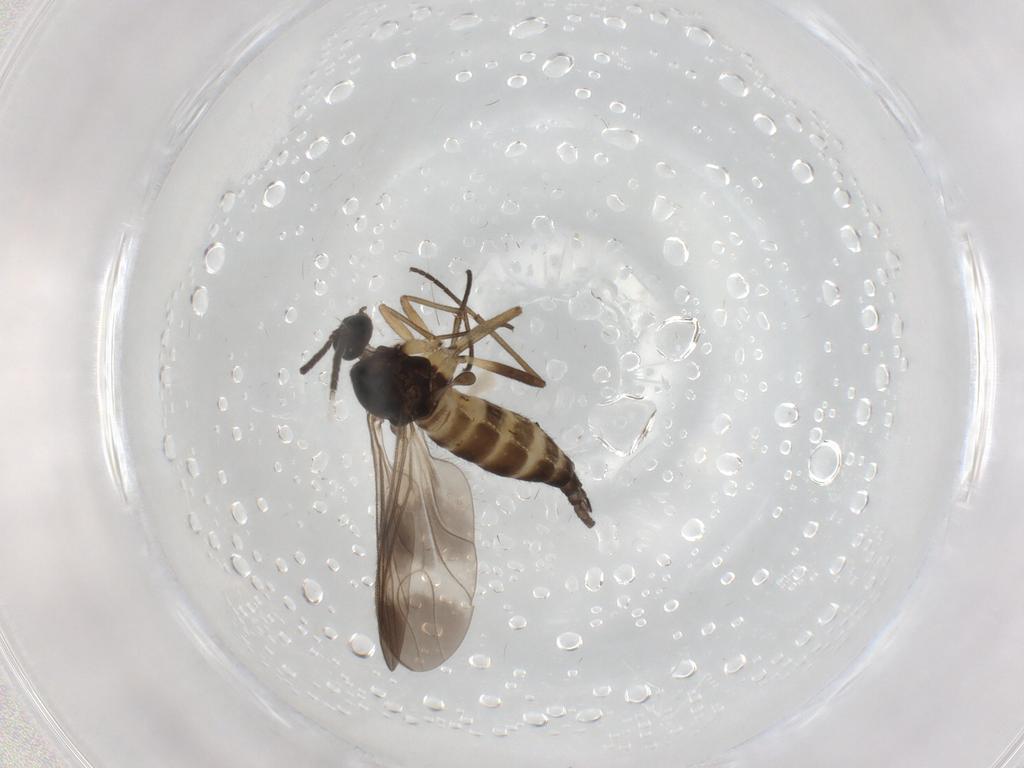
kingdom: Animalia
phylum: Arthropoda
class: Insecta
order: Diptera
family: Sciaridae
